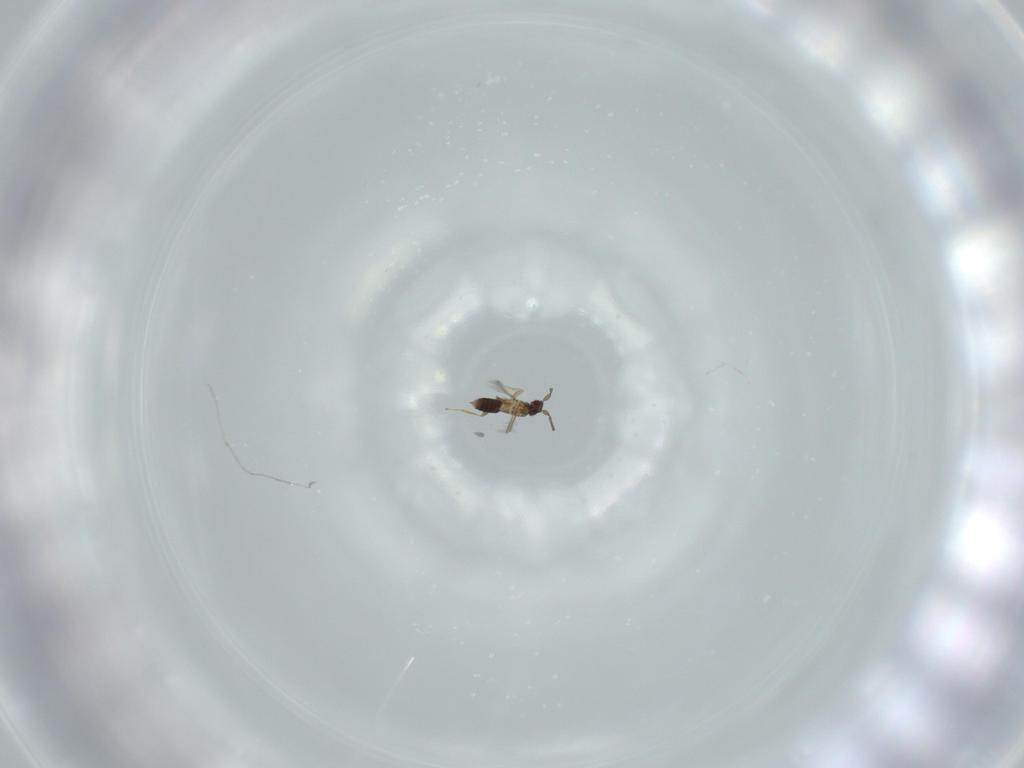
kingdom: Animalia
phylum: Arthropoda
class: Insecta
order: Hymenoptera
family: Mymaridae
